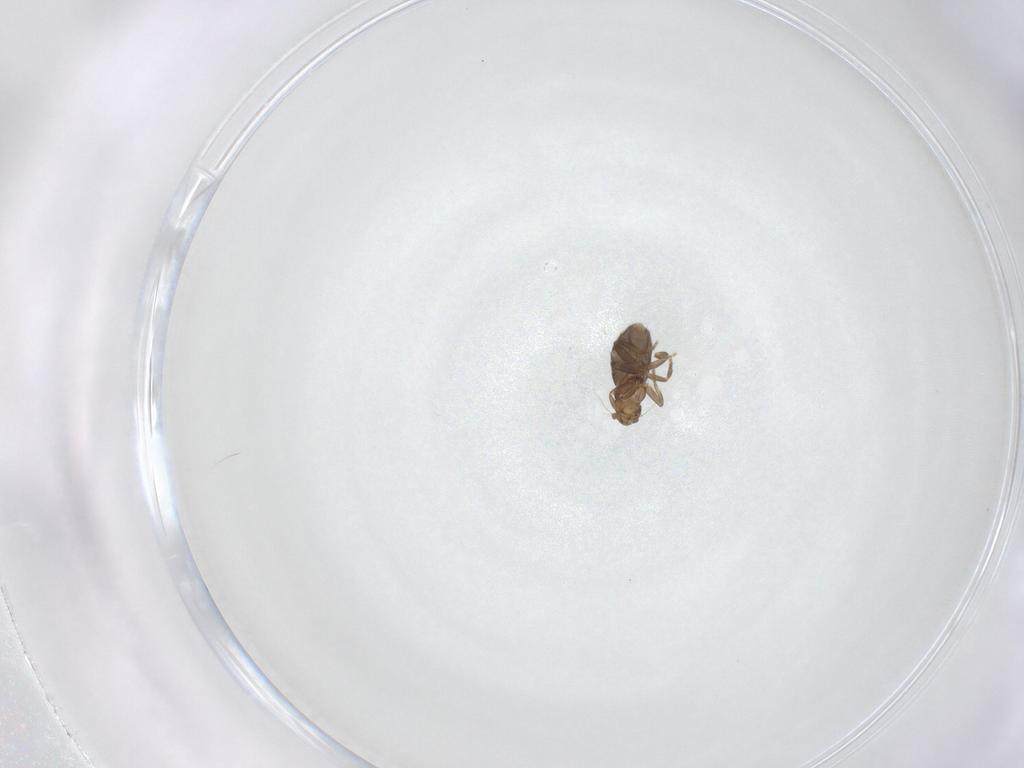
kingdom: Animalia
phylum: Arthropoda
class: Insecta
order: Diptera
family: Phoridae
